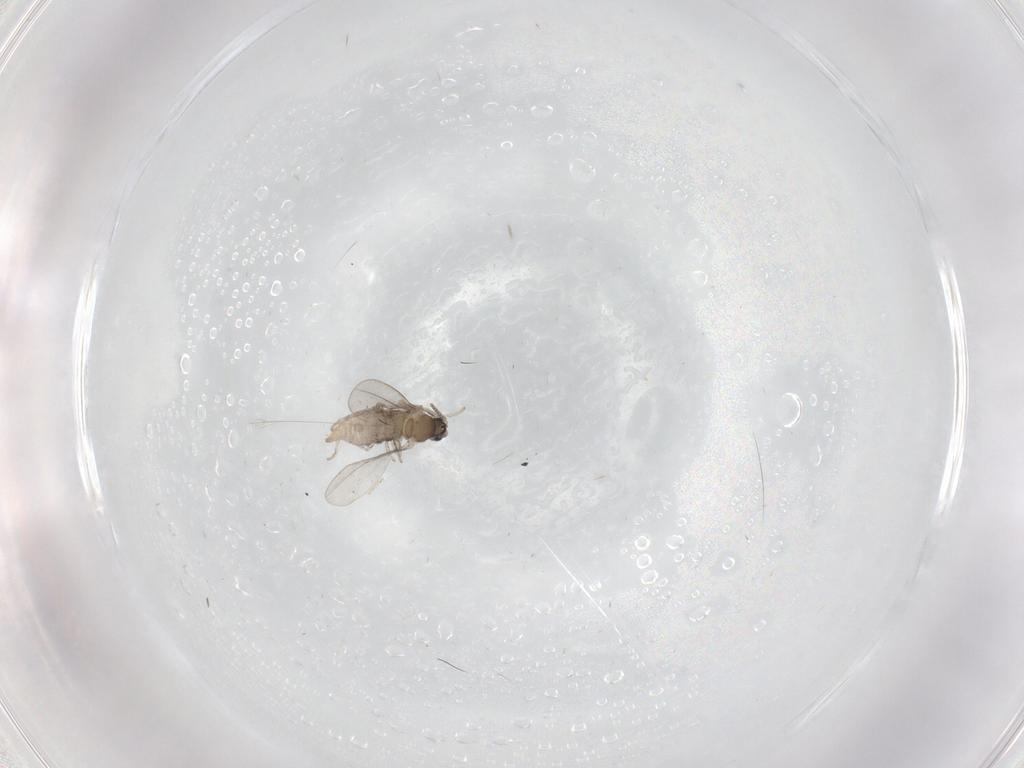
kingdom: Animalia
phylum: Arthropoda
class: Insecta
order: Diptera
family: Cecidomyiidae
